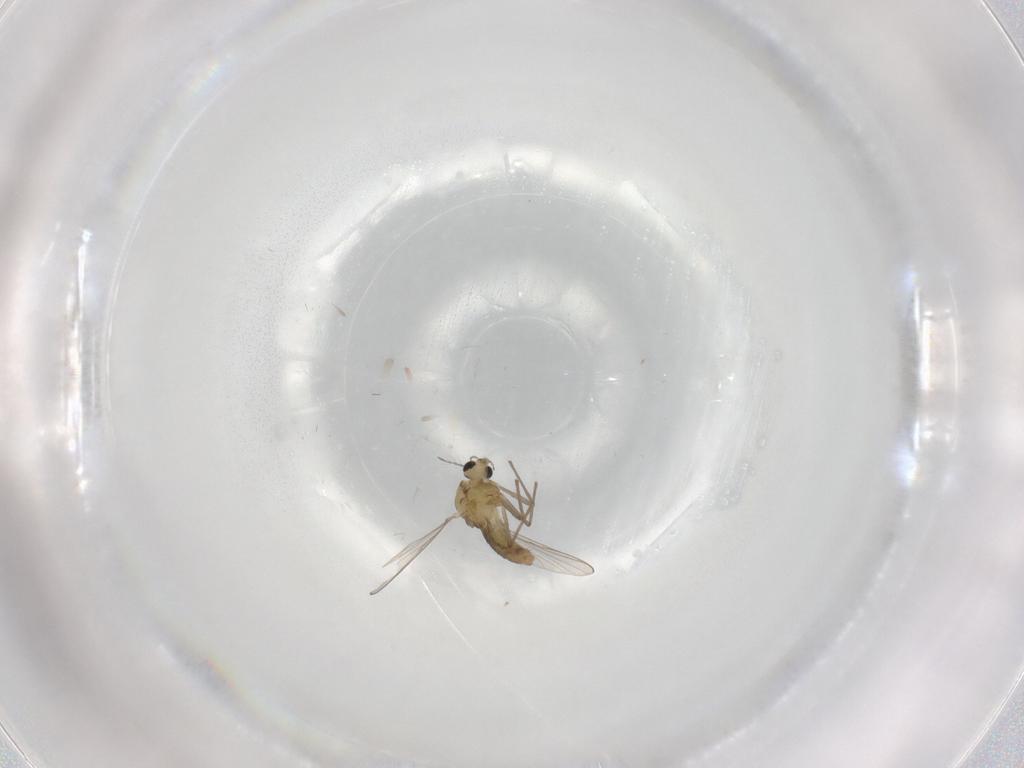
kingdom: Animalia
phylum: Arthropoda
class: Insecta
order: Diptera
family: Chironomidae
